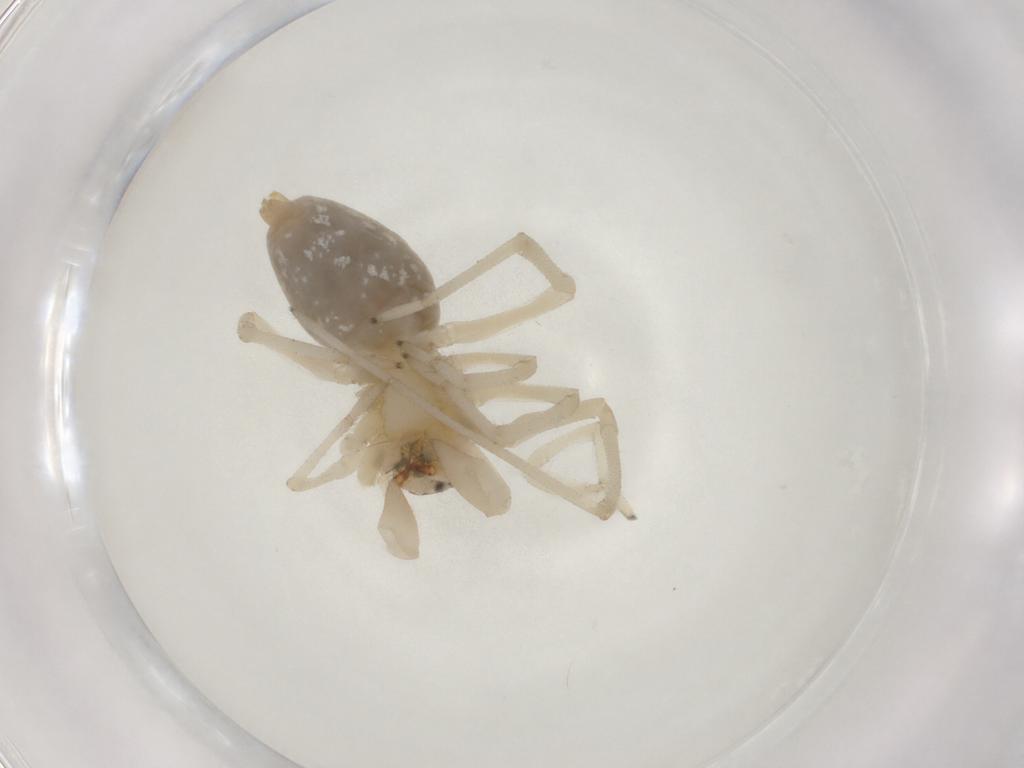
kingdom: Animalia
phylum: Arthropoda
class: Arachnida
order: Araneae
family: Cheiracanthiidae
